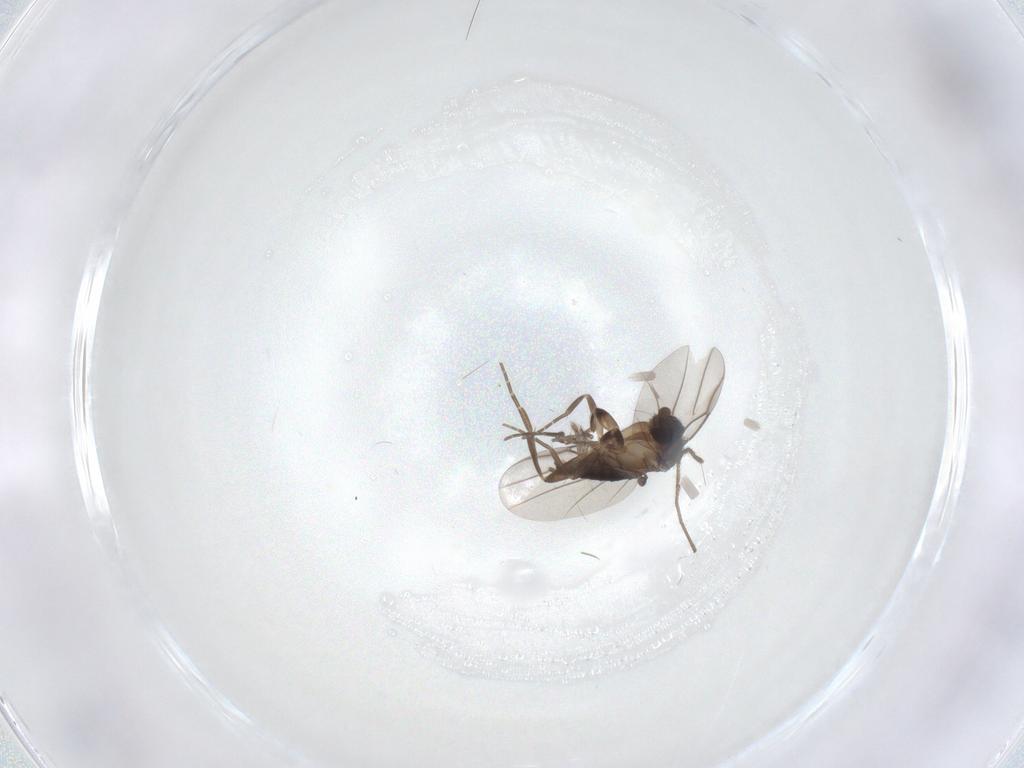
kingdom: Animalia
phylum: Arthropoda
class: Insecta
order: Diptera
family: Phoridae
